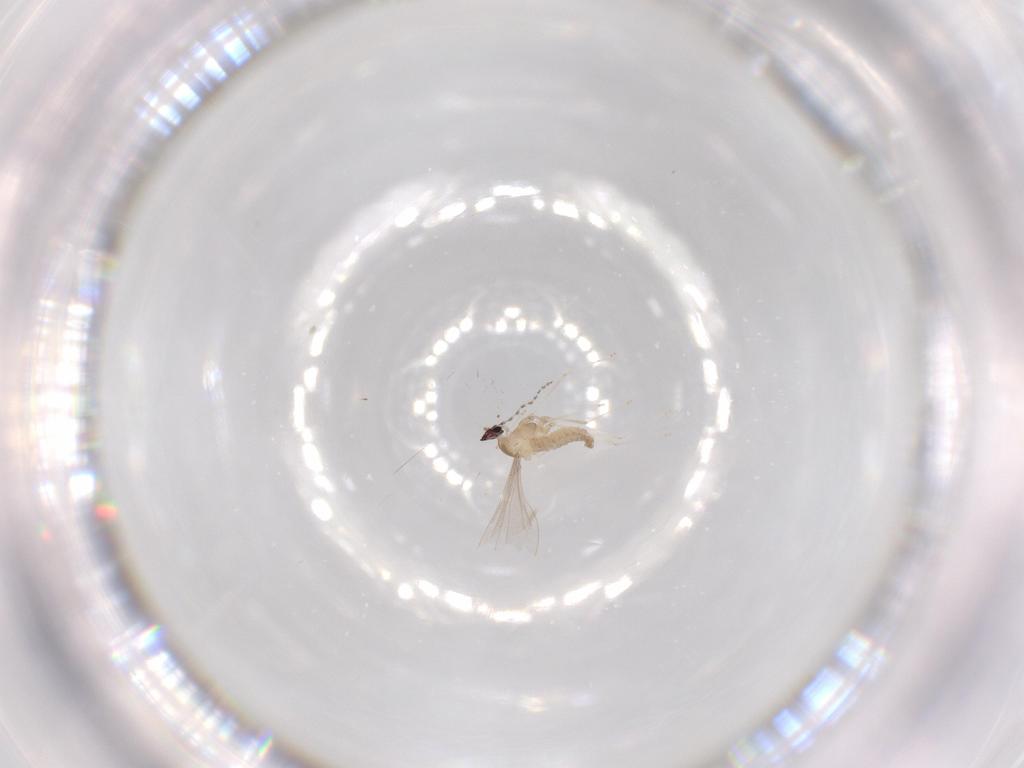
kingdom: Animalia
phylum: Arthropoda
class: Insecta
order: Diptera
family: Cecidomyiidae
